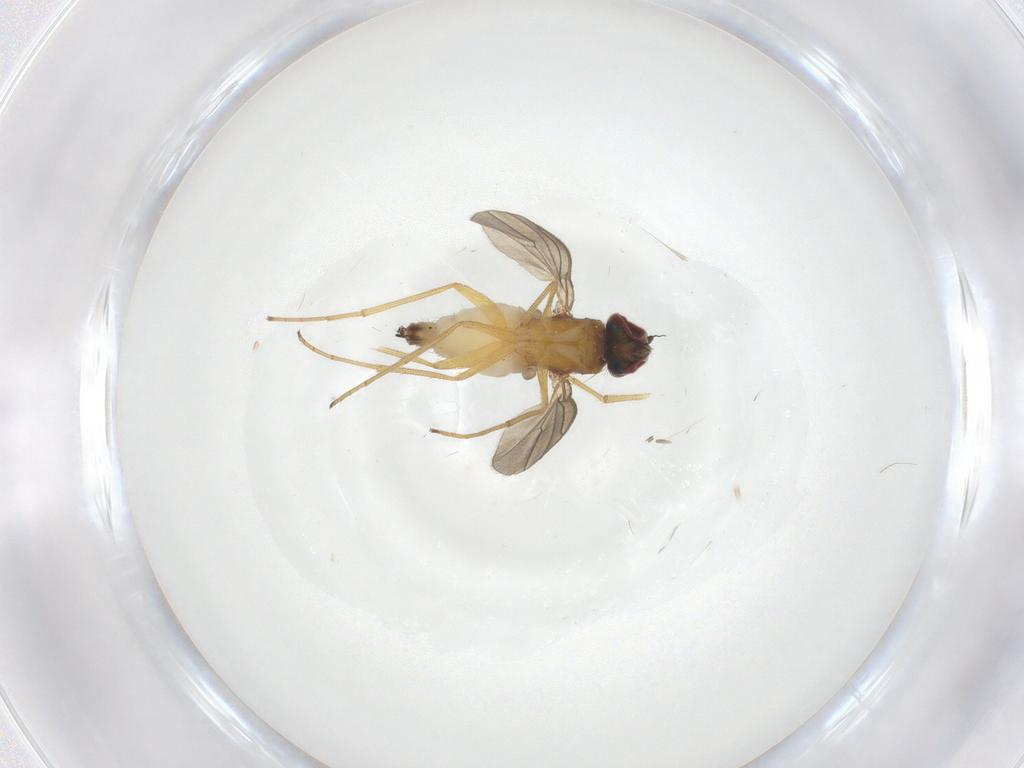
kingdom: Animalia
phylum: Arthropoda
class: Insecta
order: Diptera
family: Dolichopodidae
